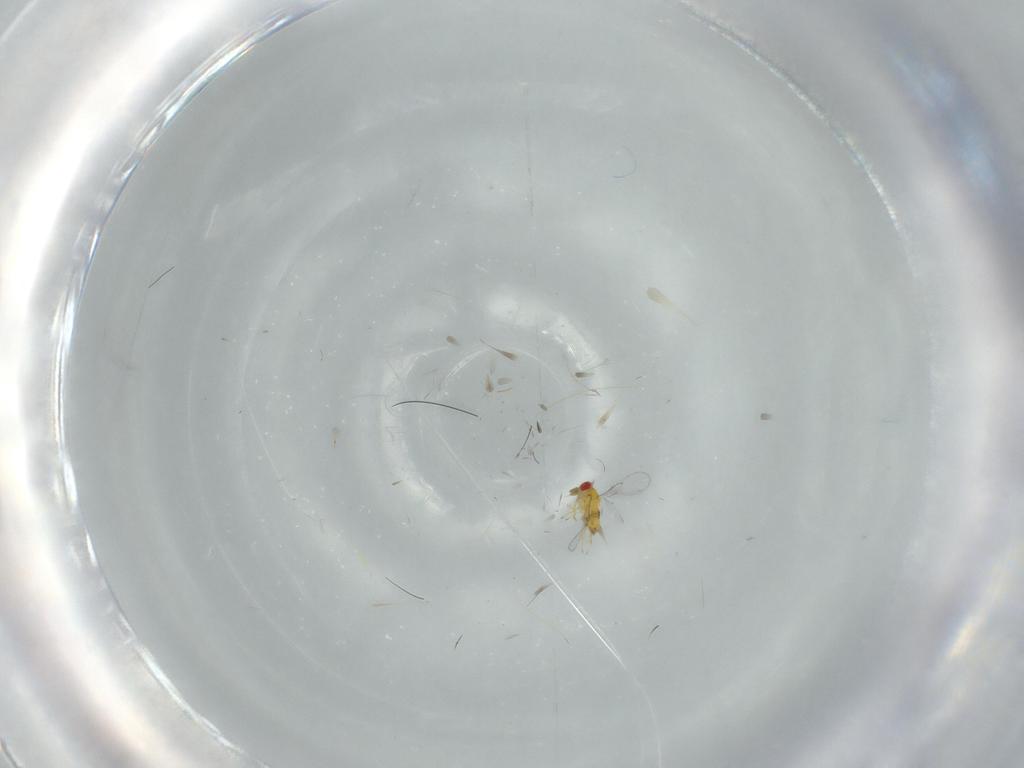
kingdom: Animalia
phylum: Arthropoda
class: Insecta
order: Hymenoptera
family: Trichogrammatidae
